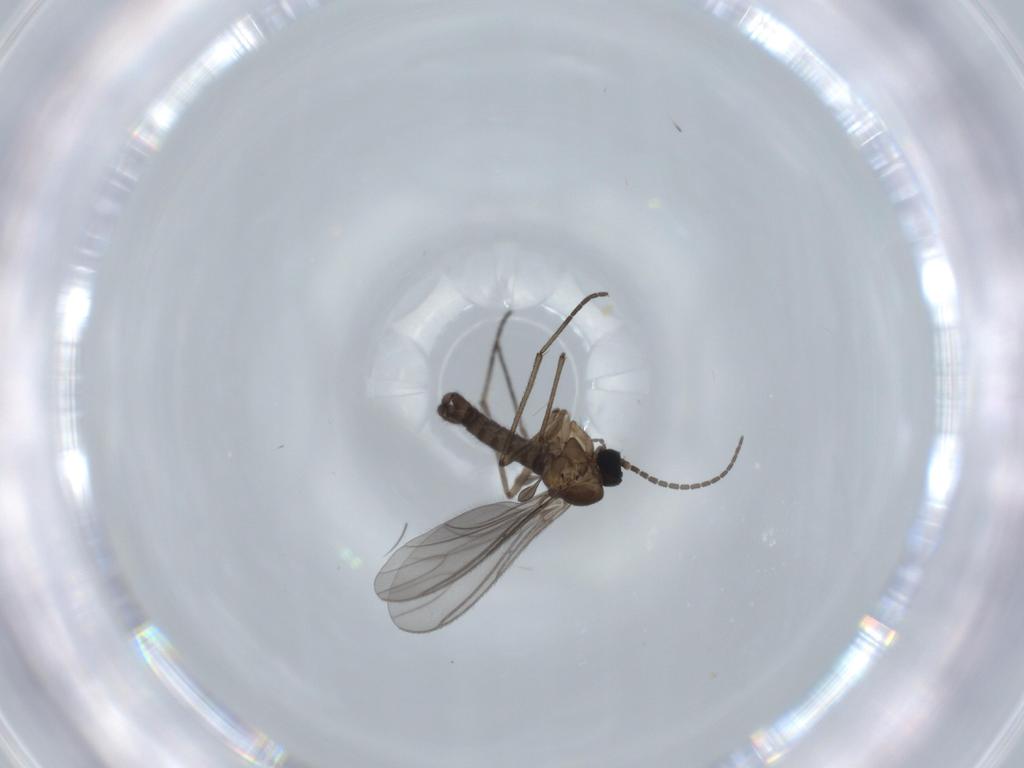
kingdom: Animalia
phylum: Arthropoda
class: Insecta
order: Diptera
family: Sciaridae
